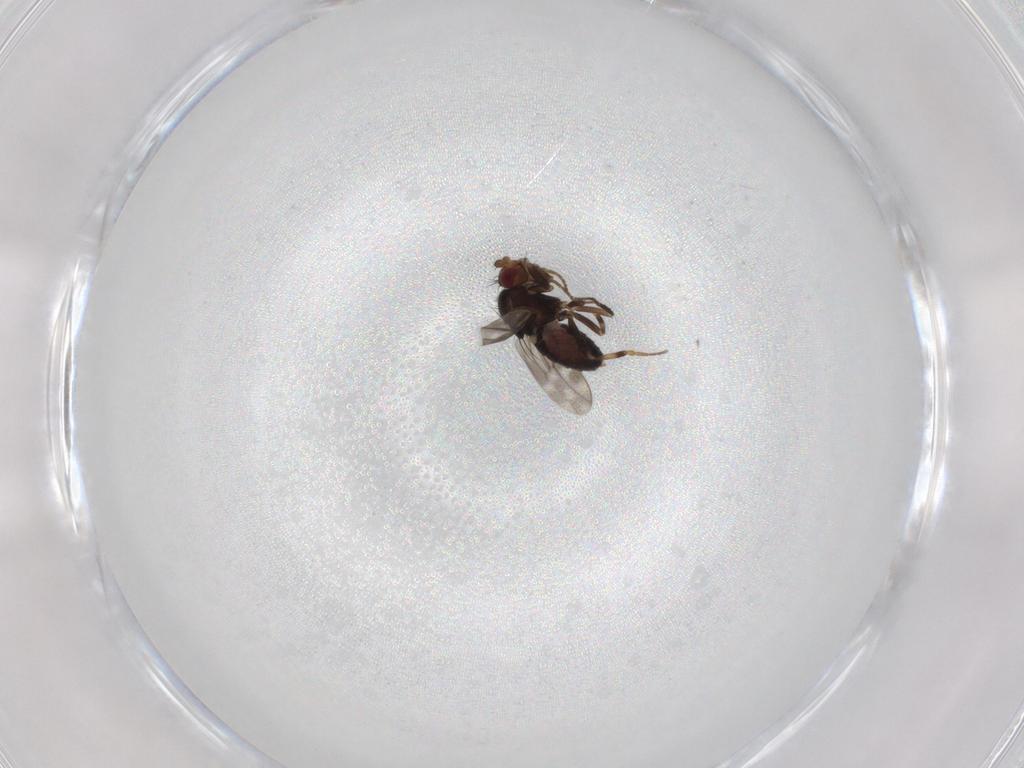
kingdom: Animalia
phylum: Arthropoda
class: Insecta
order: Diptera
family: Sphaeroceridae
